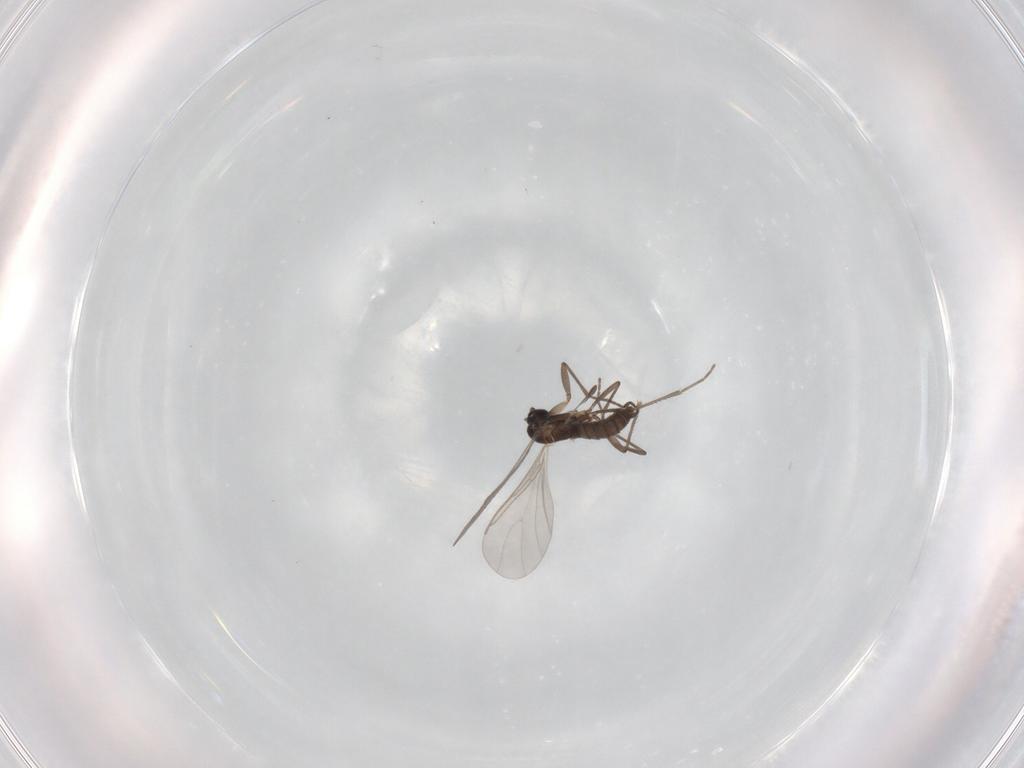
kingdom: Animalia
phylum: Arthropoda
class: Insecta
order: Diptera
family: Sciaridae
